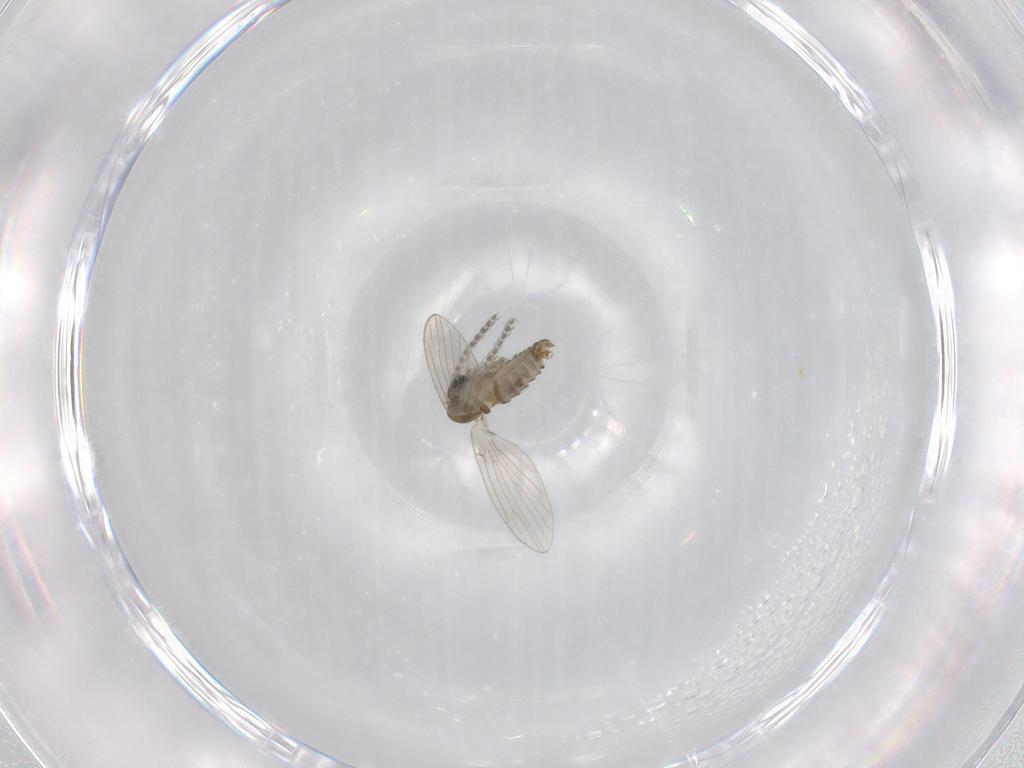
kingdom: Animalia
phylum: Arthropoda
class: Insecta
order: Diptera
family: Psychodidae
